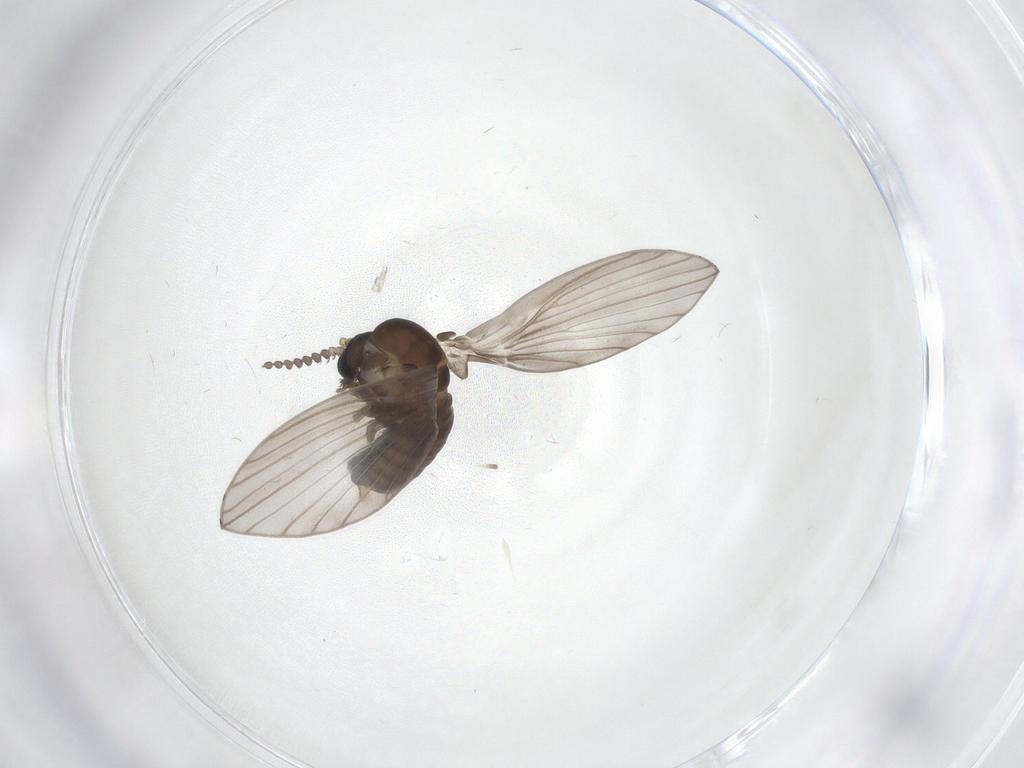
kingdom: Animalia
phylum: Arthropoda
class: Insecta
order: Diptera
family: Psychodidae
